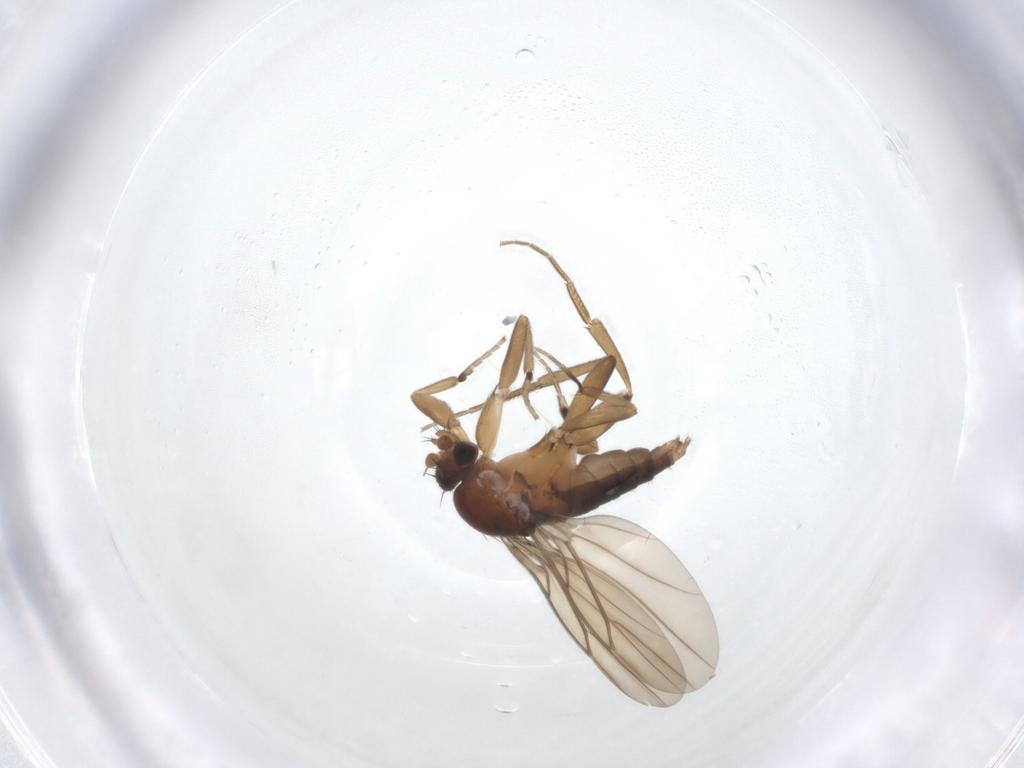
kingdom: Animalia
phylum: Arthropoda
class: Insecta
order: Diptera
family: Phoridae
